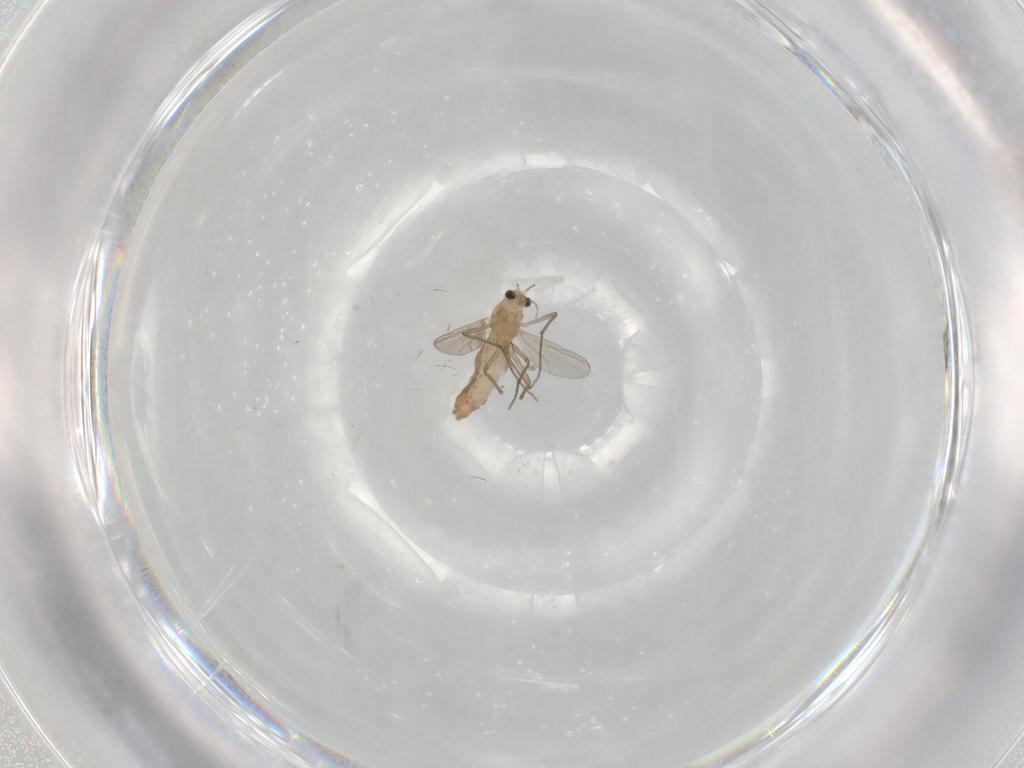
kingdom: Animalia
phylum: Arthropoda
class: Insecta
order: Diptera
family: Chironomidae
